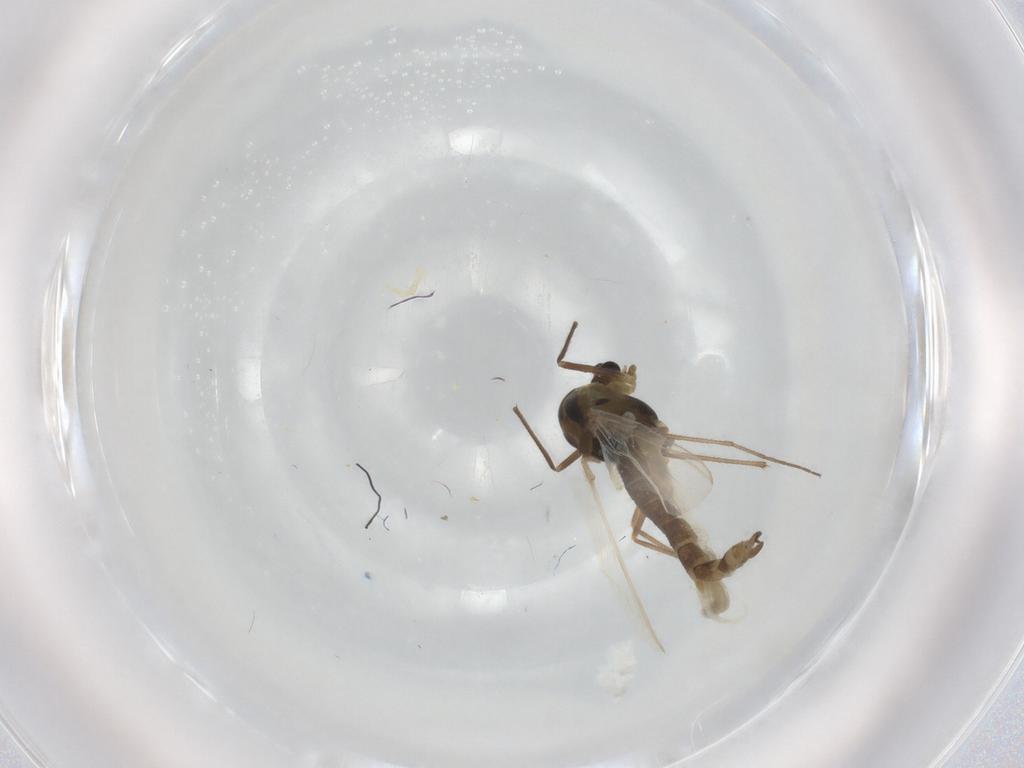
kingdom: Animalia
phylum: Arthropoda
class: Insecta
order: Diptera
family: Chironomidae
